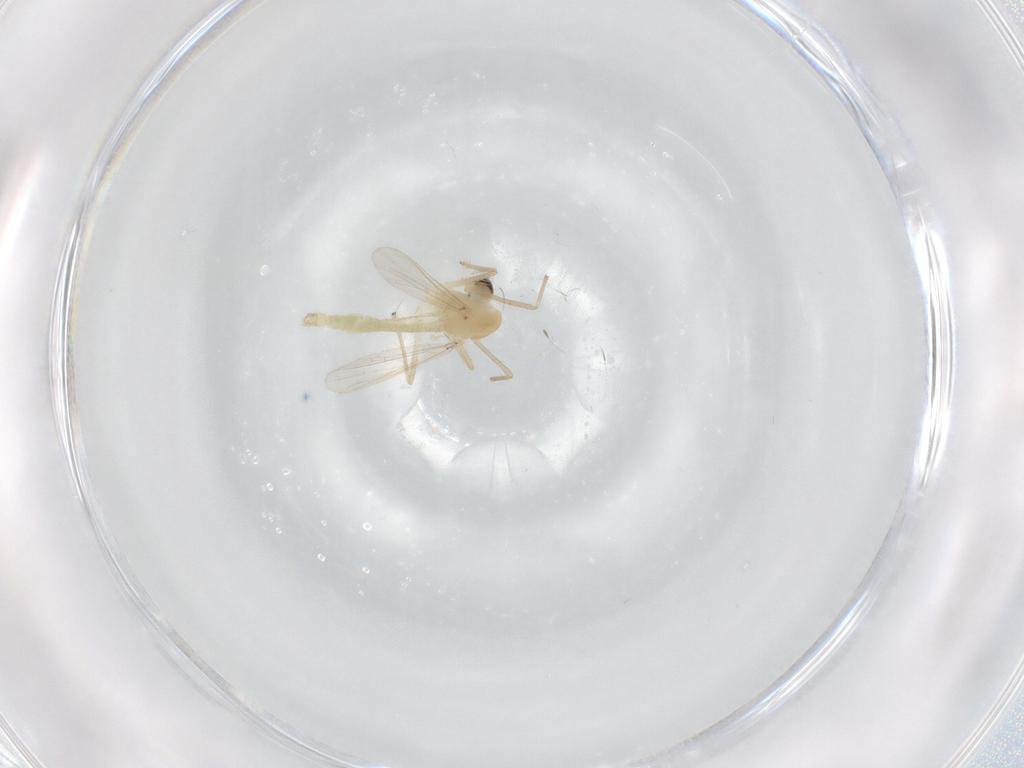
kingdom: Animalia
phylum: Arthropoda
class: Insecta
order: Diptera
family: Chironomidae
